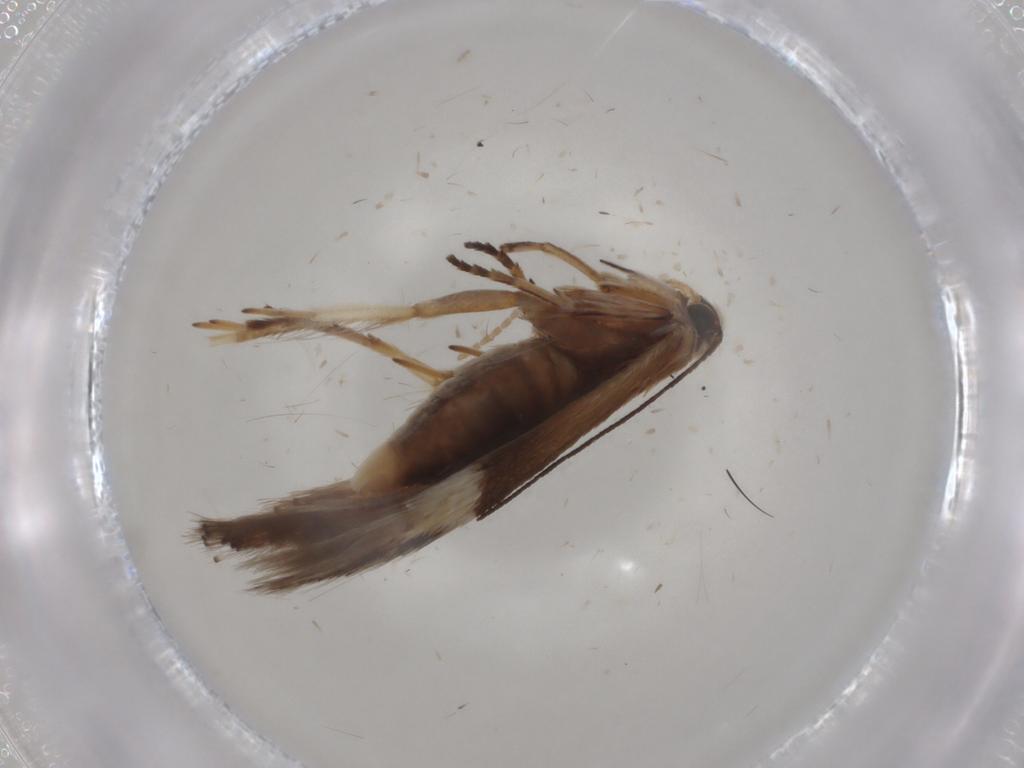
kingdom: Animalia
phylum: Arthropoda
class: Insecta
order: Lepidoptera
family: Gelechiidae
